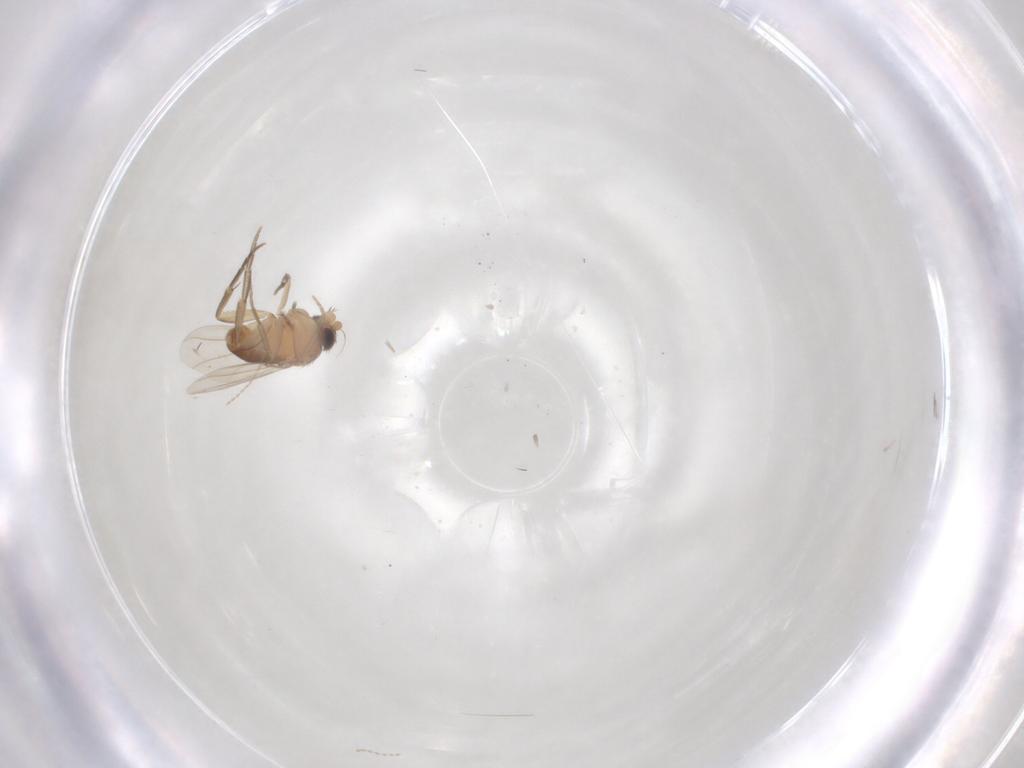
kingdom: Animalia
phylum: Arthropoda
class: Insecta
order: Diptera
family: Phoridae
